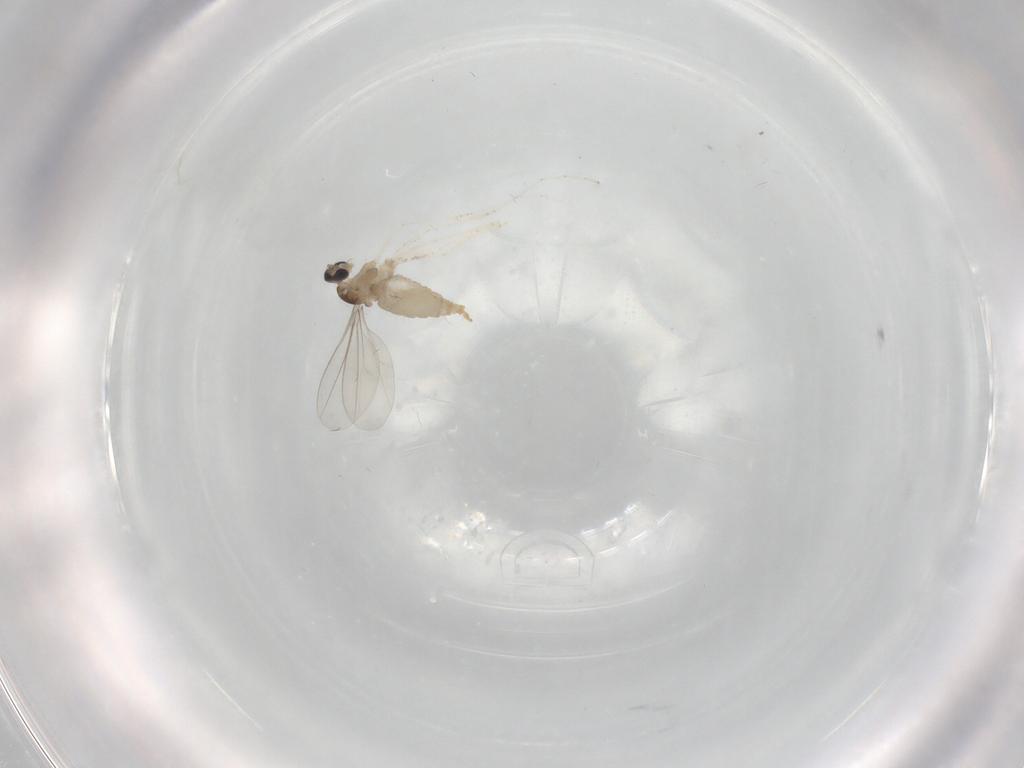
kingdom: Animalia
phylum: Arthropoda
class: Insecta
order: Diptera
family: Cecidomyiidae
